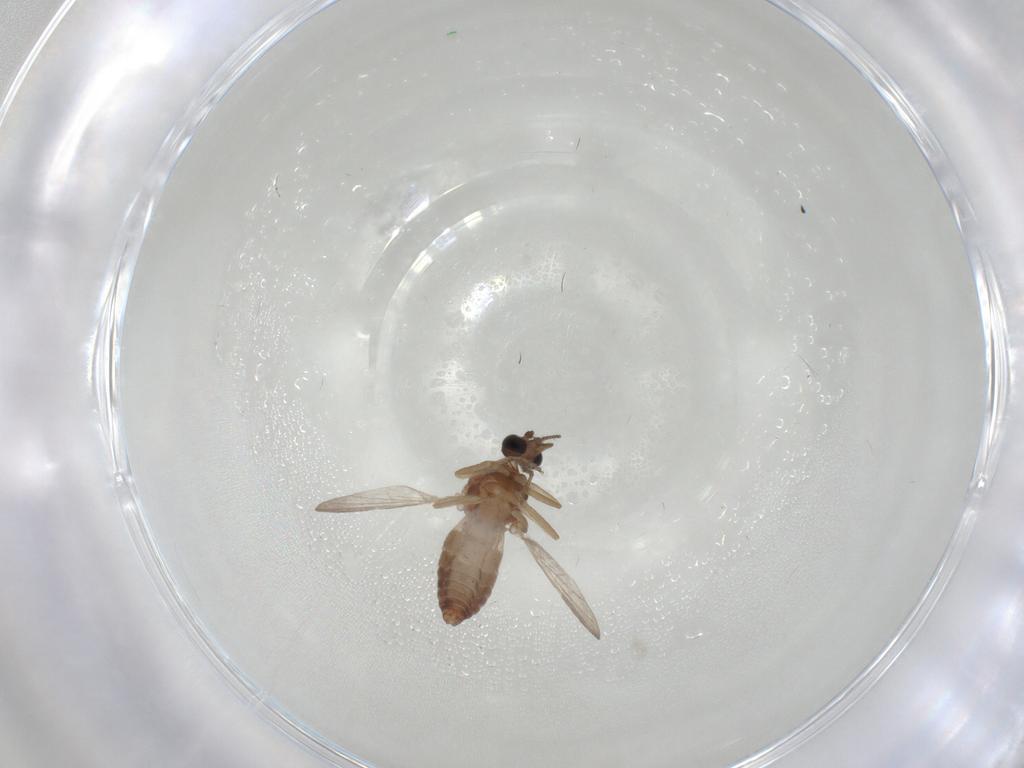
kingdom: Animalia
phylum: Arthropoda
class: Insecta
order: Diptera
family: Ceratopogonidae
